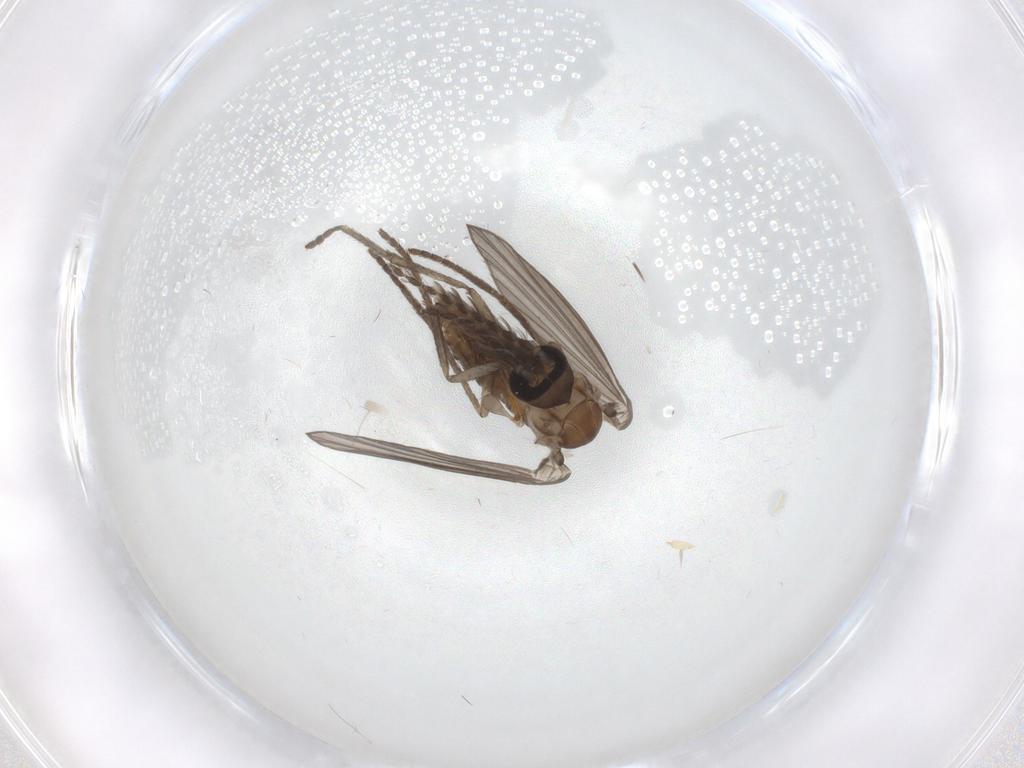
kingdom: Animalia
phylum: Arthropoda
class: Insecta
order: Diptera
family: Psychodidae
